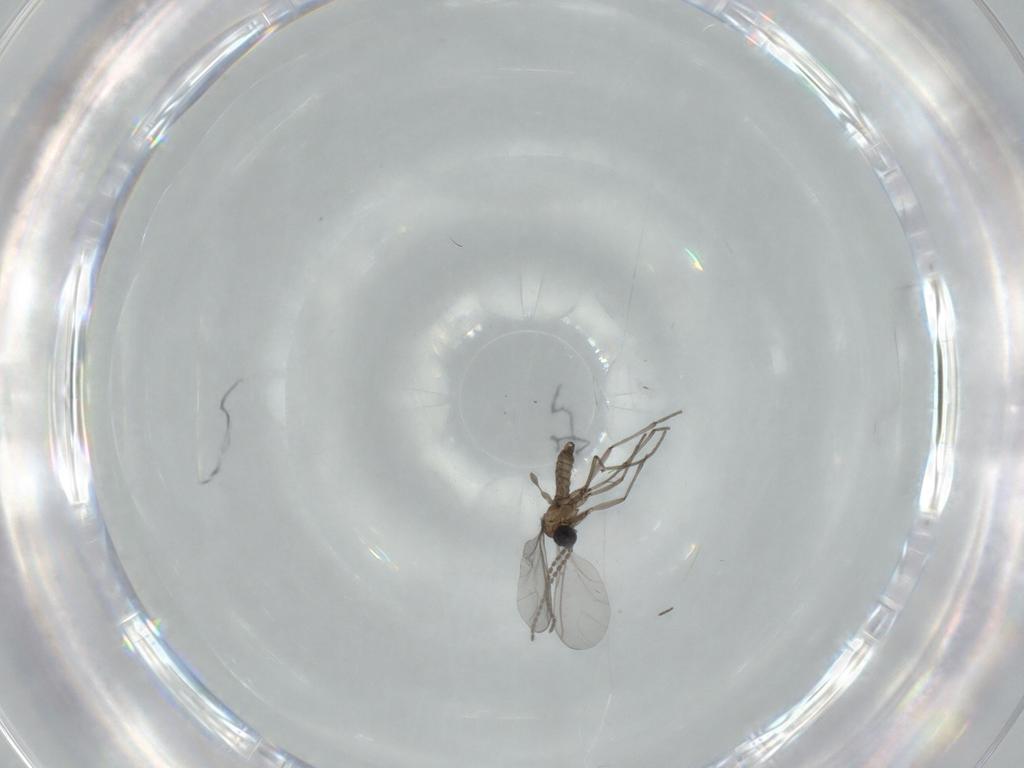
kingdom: Animalia
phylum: Arthropoda
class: Insecta
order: Diptera
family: Sciaridae
